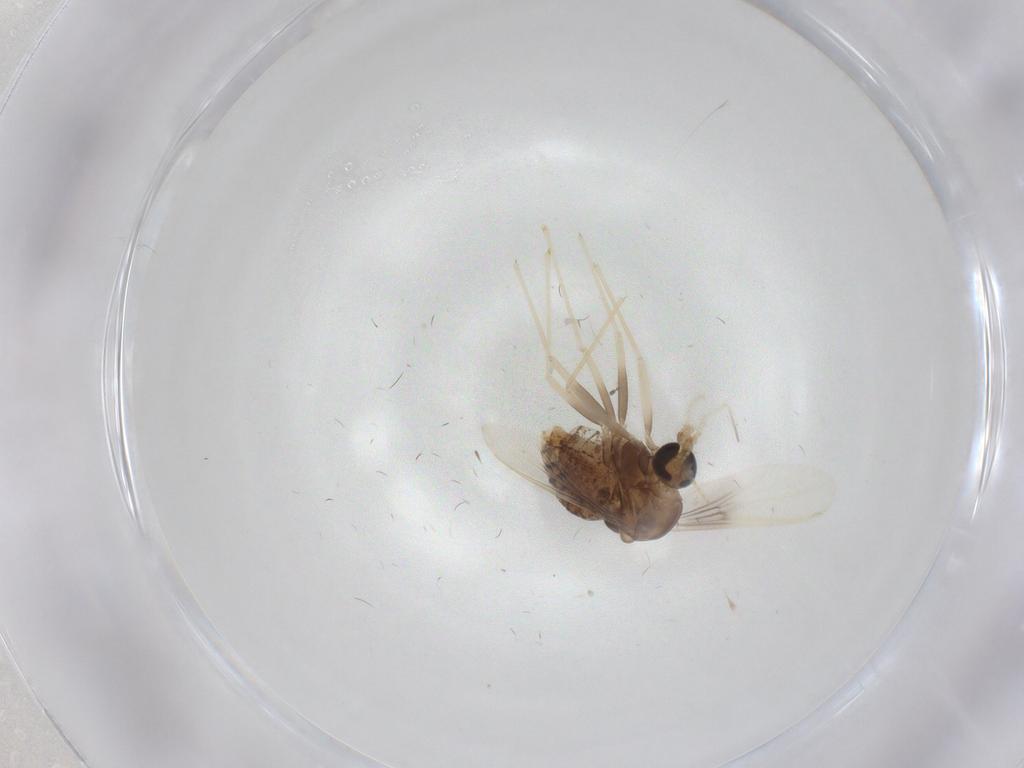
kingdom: Animalia
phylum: Arthropoda
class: Insecta
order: Diptera
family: Chironomidae
